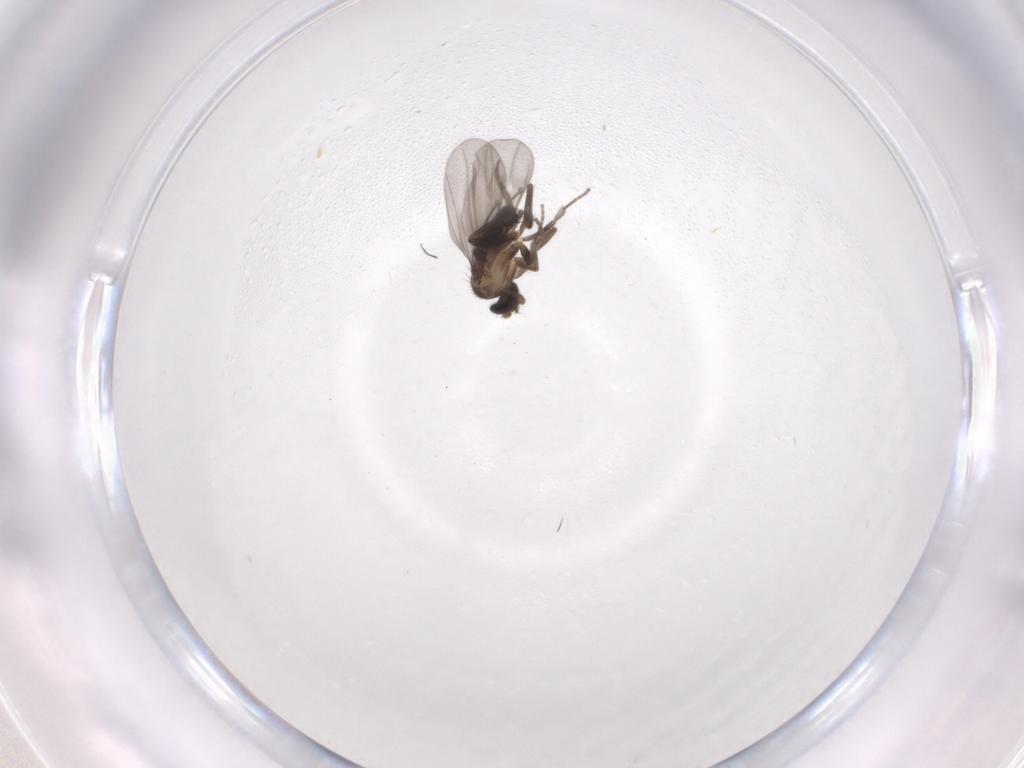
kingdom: Animalia
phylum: Arthropoda
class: Insecta
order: Diptera
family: Phoridae
